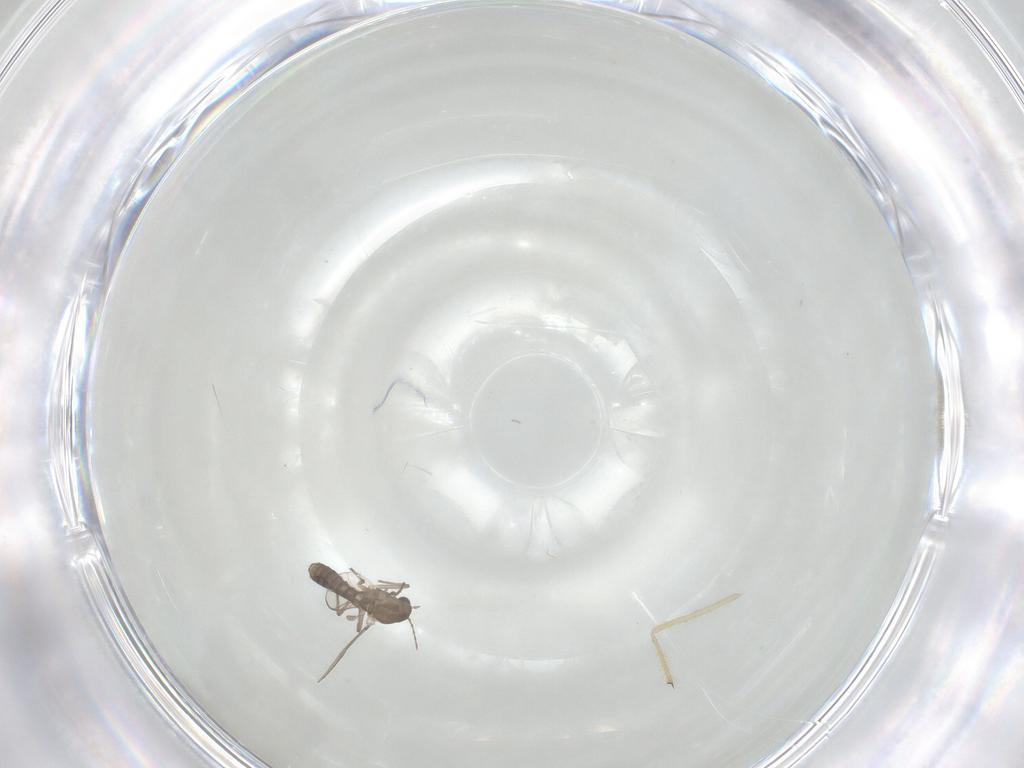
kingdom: Animalia
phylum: Arthropoda
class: Insecta
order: Diptera
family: Chironomidae
